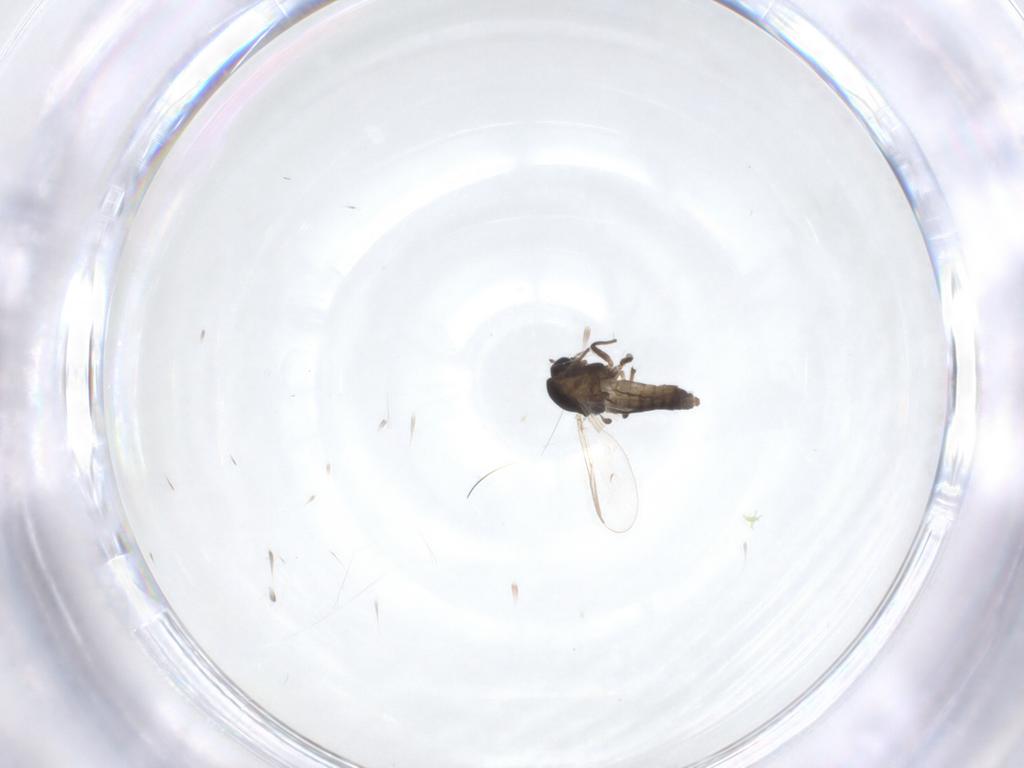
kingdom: Animalia
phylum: Arthropoda
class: Insecta
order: Diptera
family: Chironomidae
